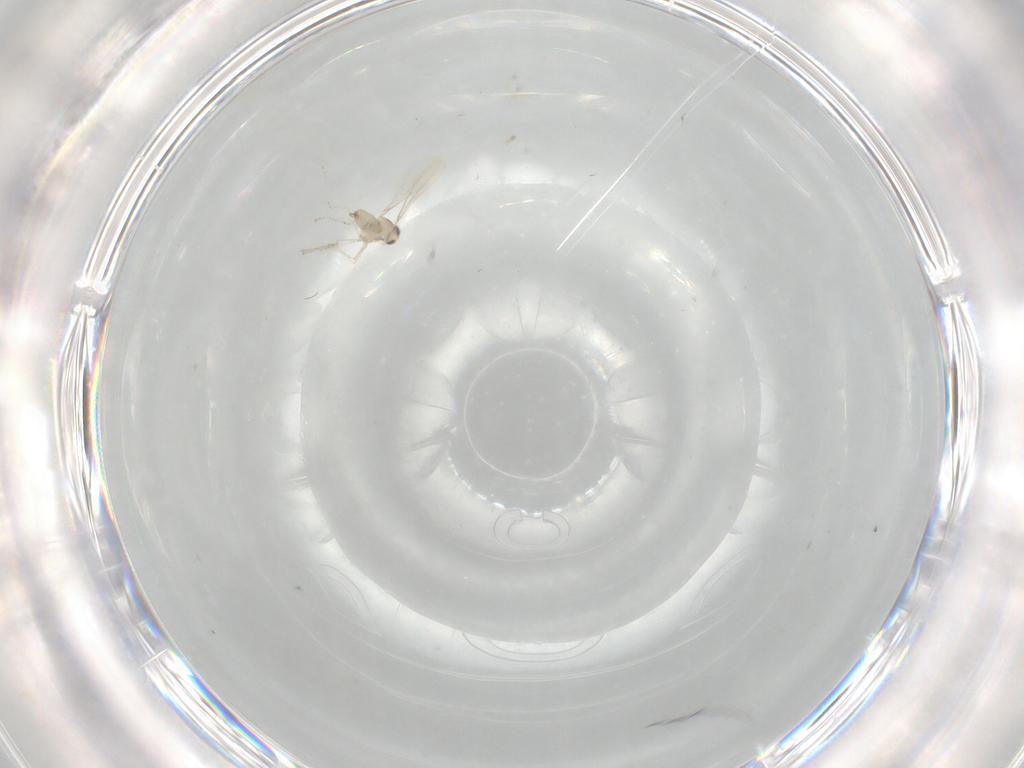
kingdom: Animalia
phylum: Arthropoda
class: Insecta
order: Diptera
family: Cecidomyiidae
